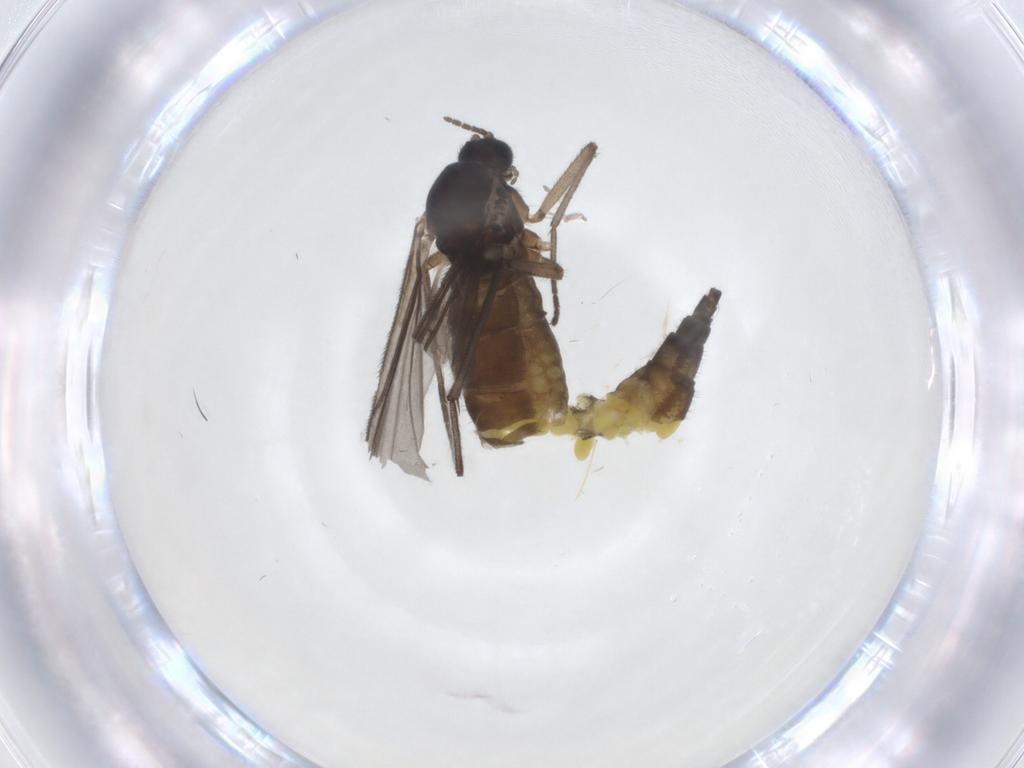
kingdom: Animalia
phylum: Arthropoda
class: Insecta
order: Diptera
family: Sciaridae
